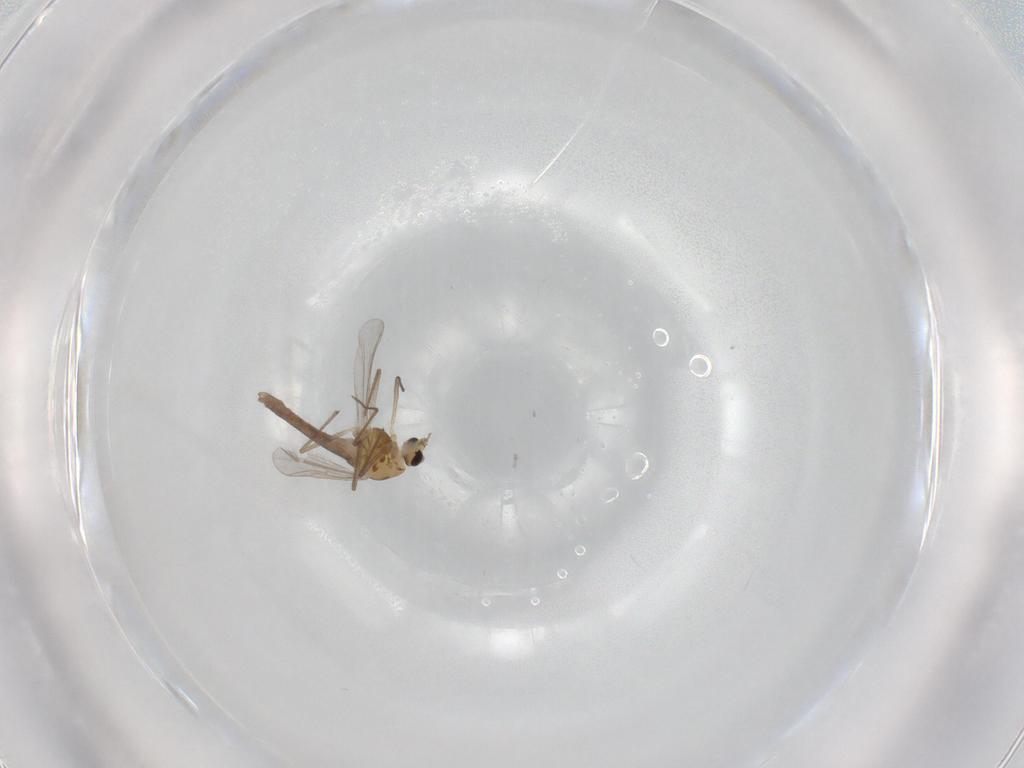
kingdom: Animalia
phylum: Arthropoda
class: Insecta
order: Diptera
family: Chironomidae
